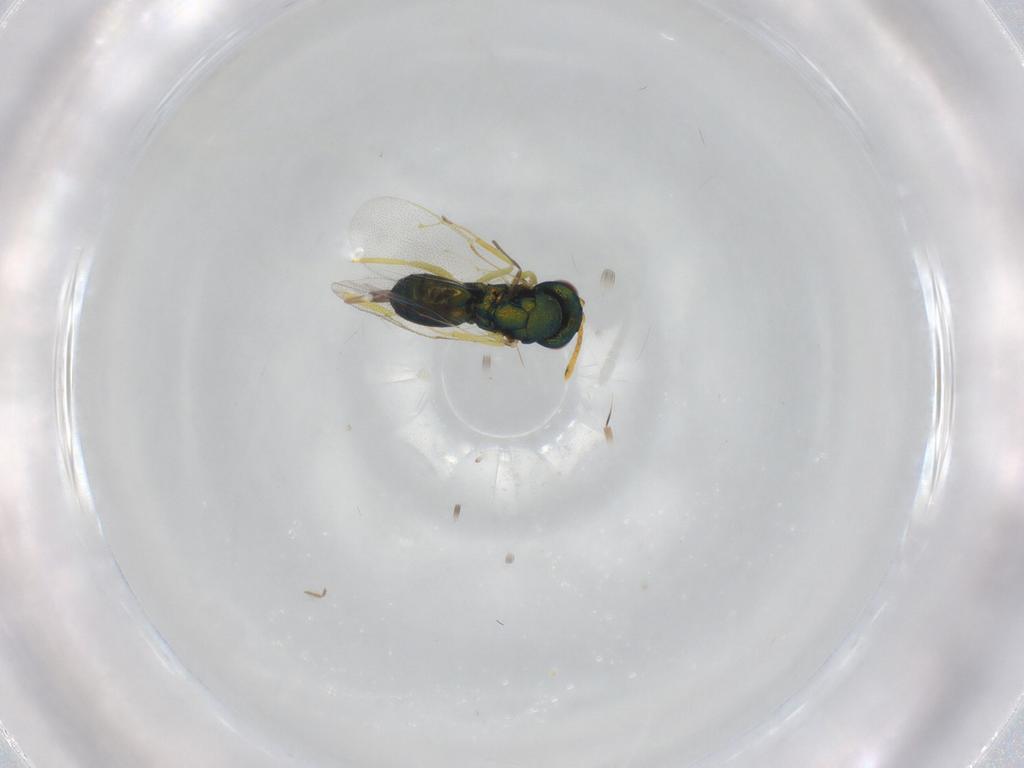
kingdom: Animalia
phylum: Arthropoda
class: Insecta
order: Hymenoptera
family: Pteromalidae
